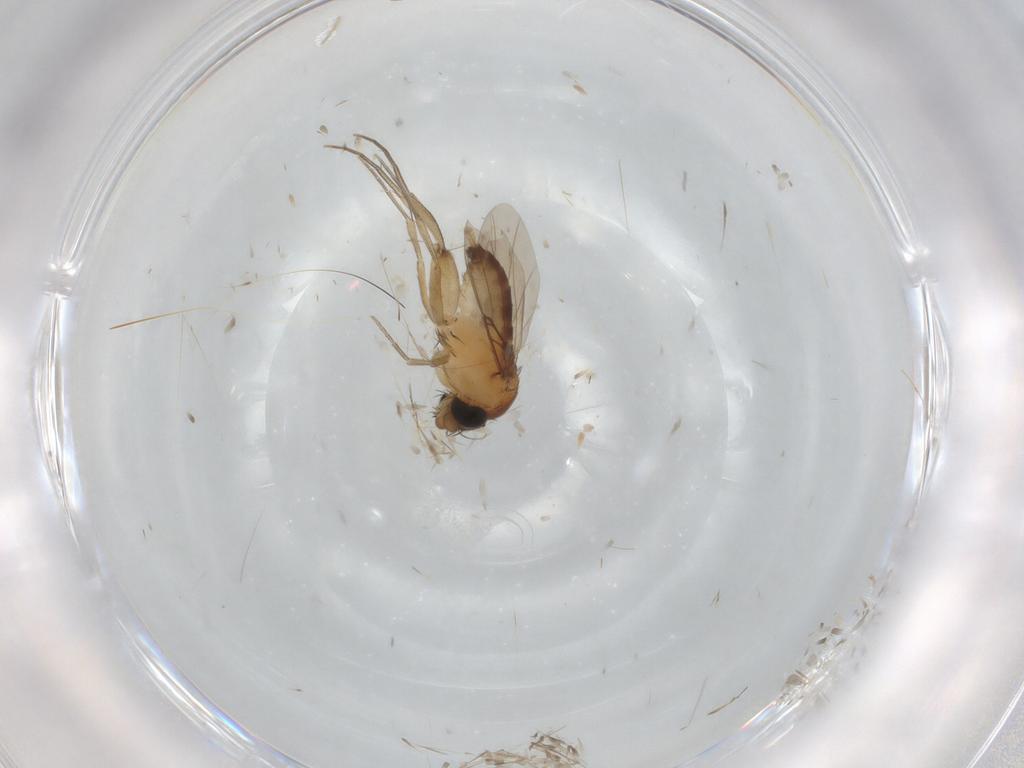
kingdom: Animalia
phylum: Arthropoda
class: Insecta
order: Diptera
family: Phoridae
